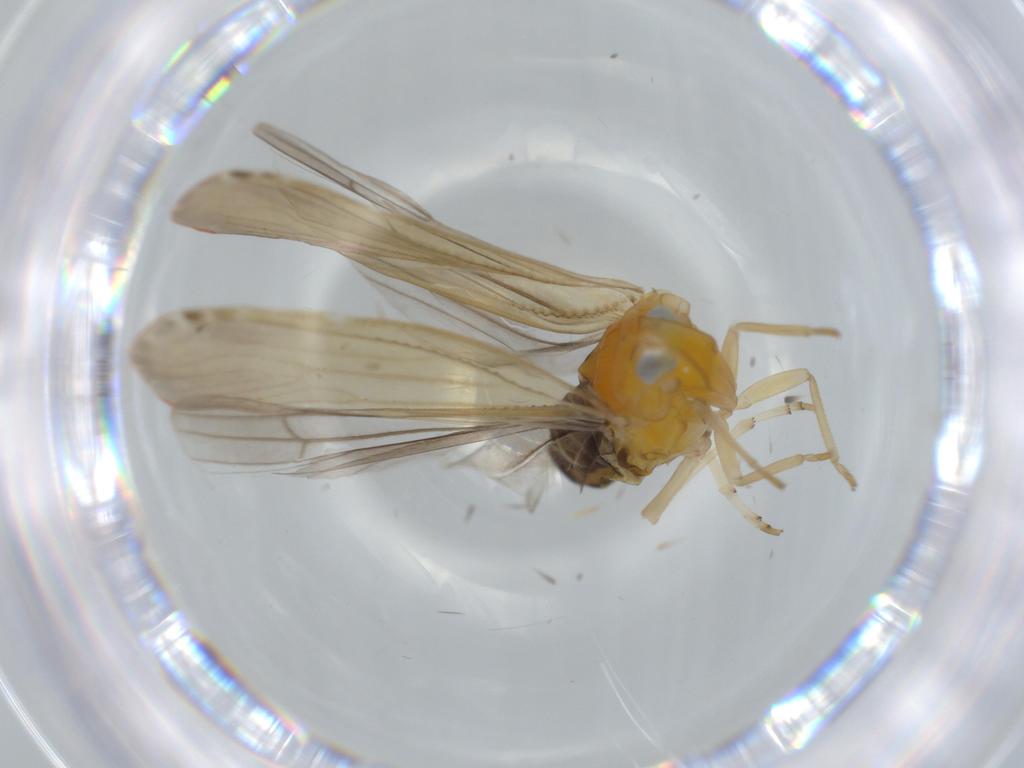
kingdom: Animalia
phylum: Arthropoda
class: Insecta
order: Hemiptera
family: Derbidae
